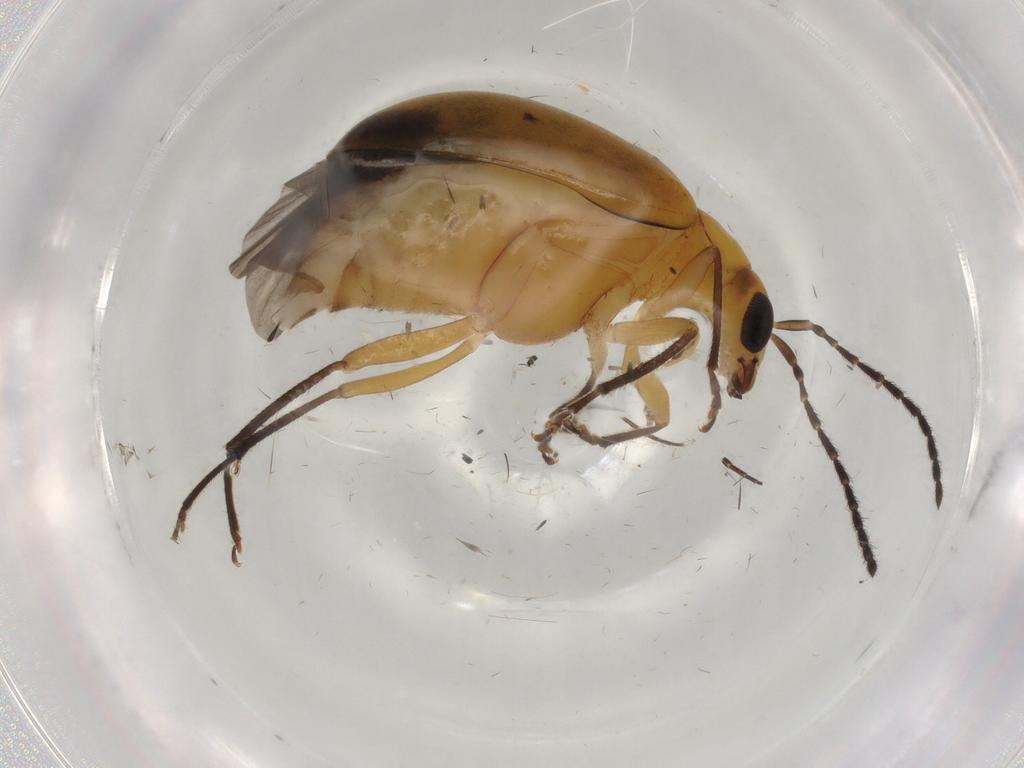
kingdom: Animalia
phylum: Arthropoda
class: Insecta
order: Coleoptera
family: Chrysomelidae
